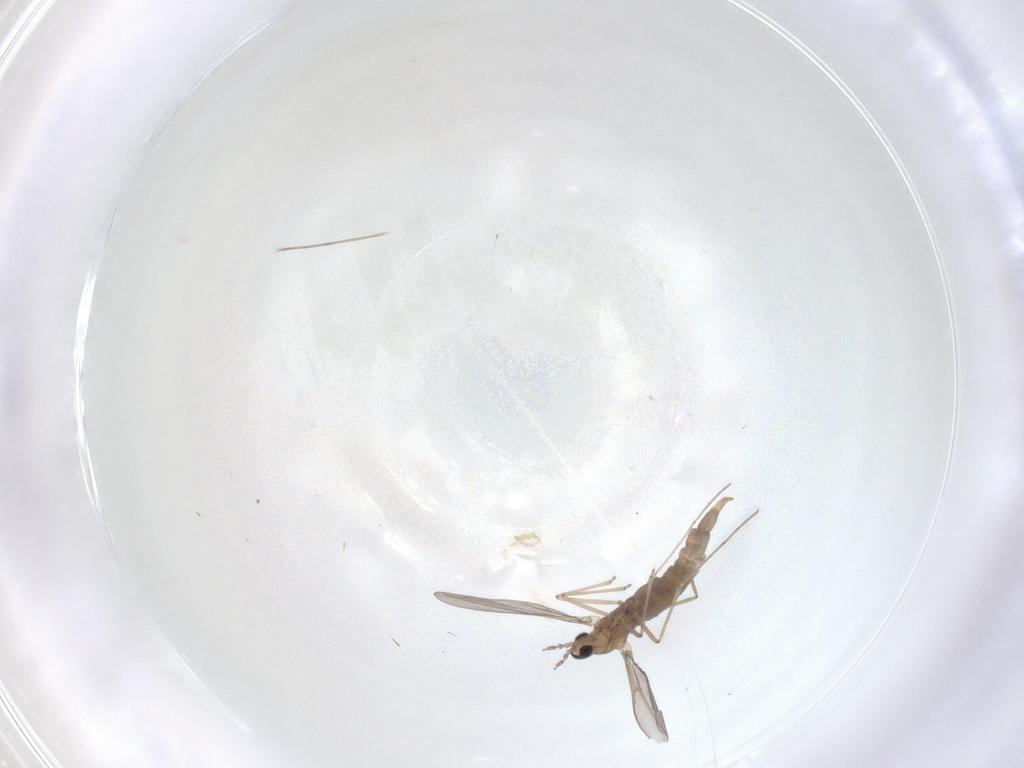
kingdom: Animalia
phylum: Arthropoda
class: Insecta
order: Diptera
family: Cecidomyiidae
